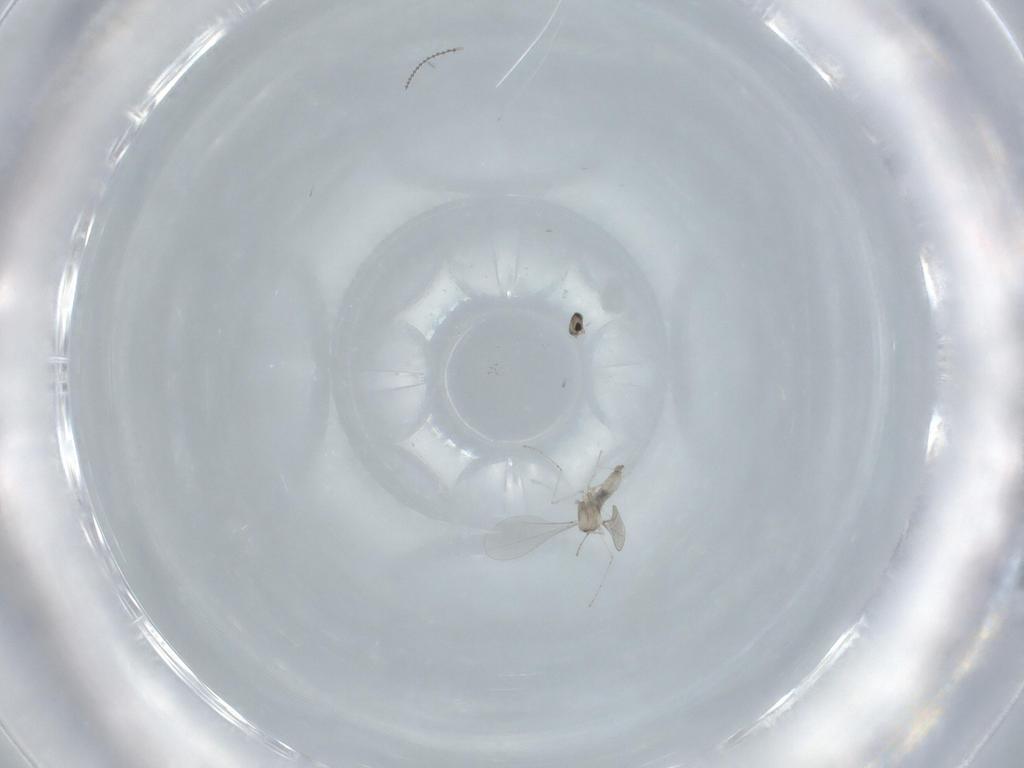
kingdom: Animalia
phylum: Arthropoda
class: Insecta
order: Diptera
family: Cecidomyiidae
